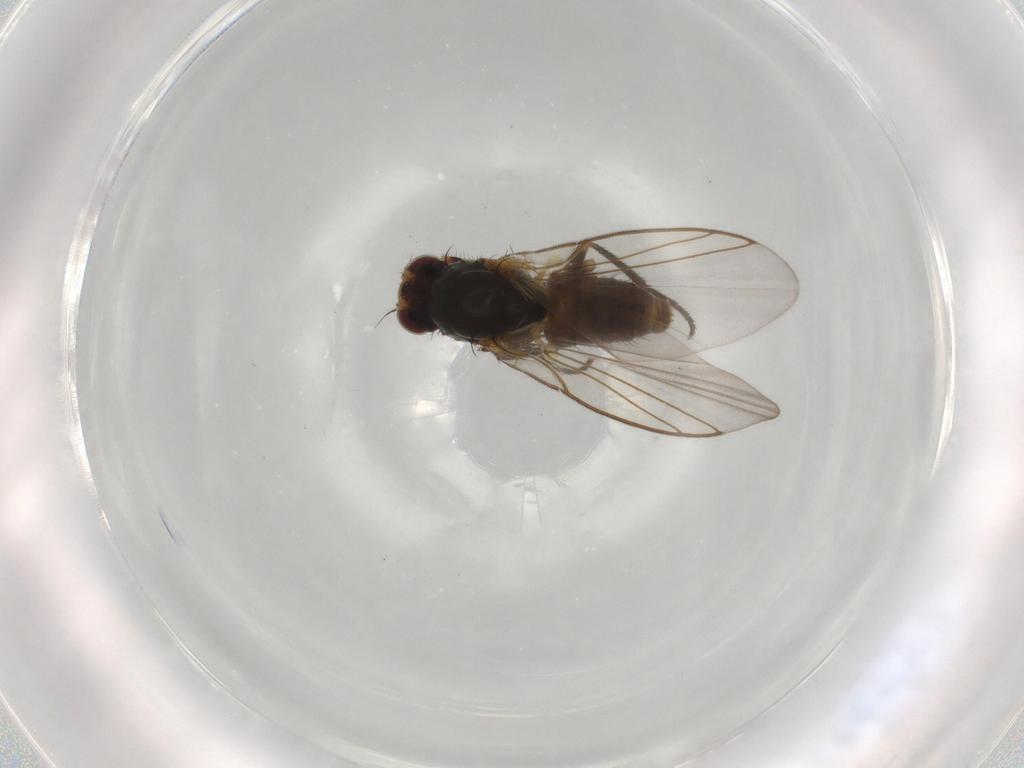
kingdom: Animalia
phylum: Arthropoda
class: Insecta
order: Diptera
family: Agromyzidae
